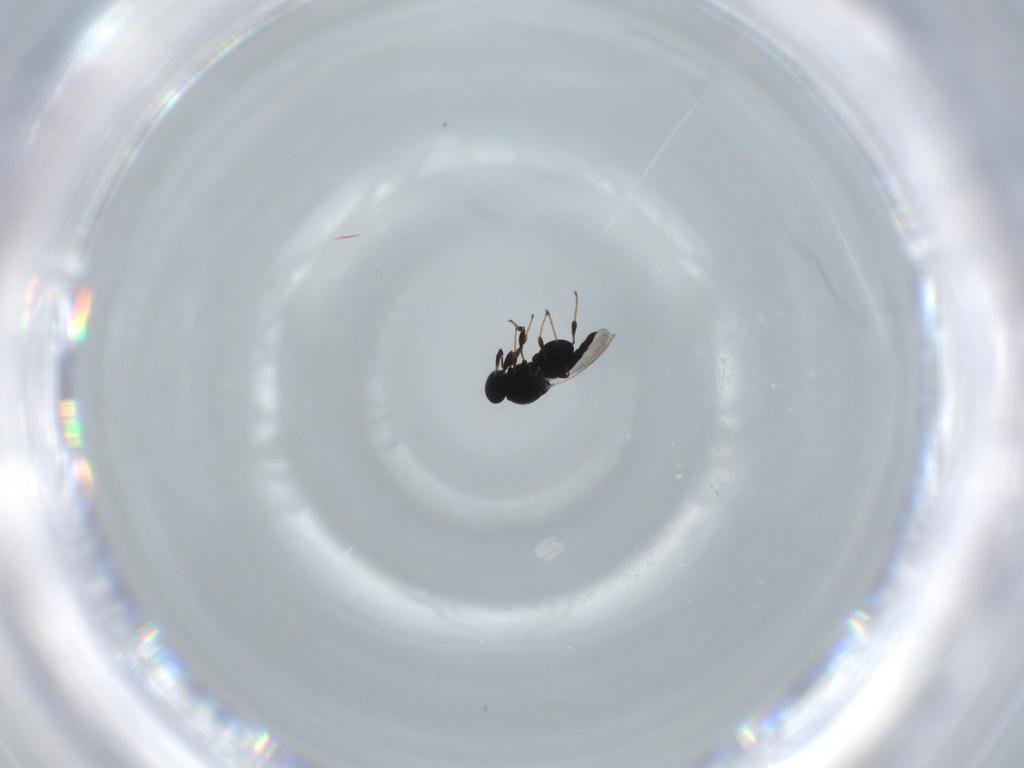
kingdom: Animalia
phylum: Arthropoda
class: Insecta
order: Hymenoptera
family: Platygastridae
